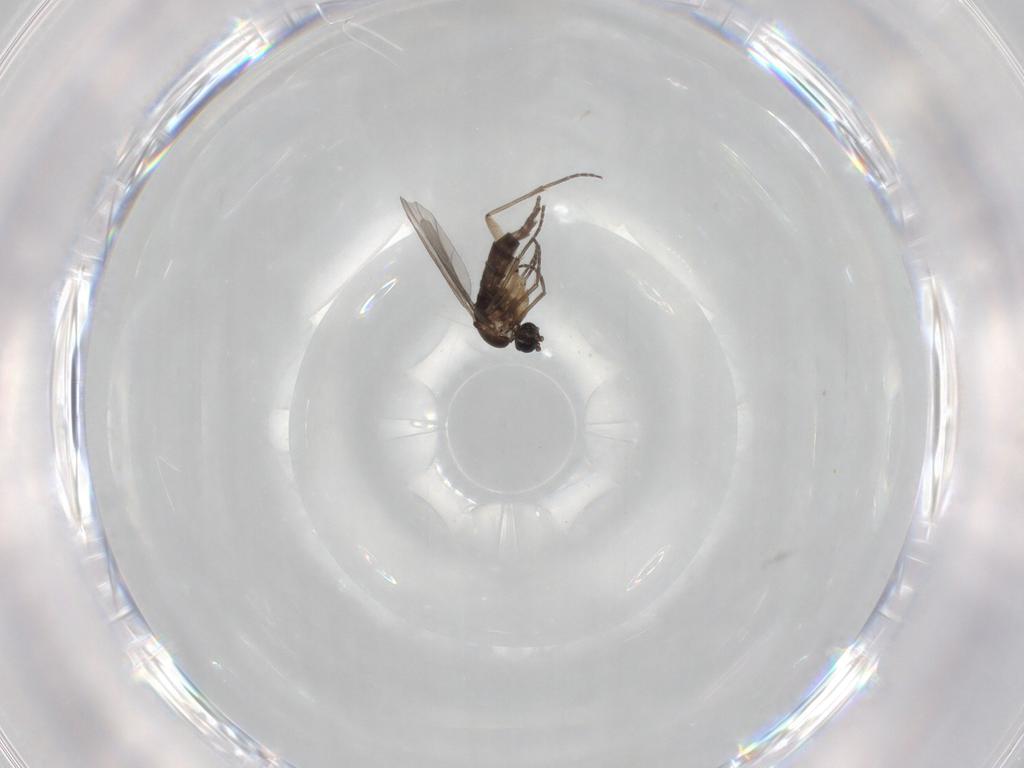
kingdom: Animalia
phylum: Arthropoda
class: Insecta
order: Diptera
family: Sciaridae
